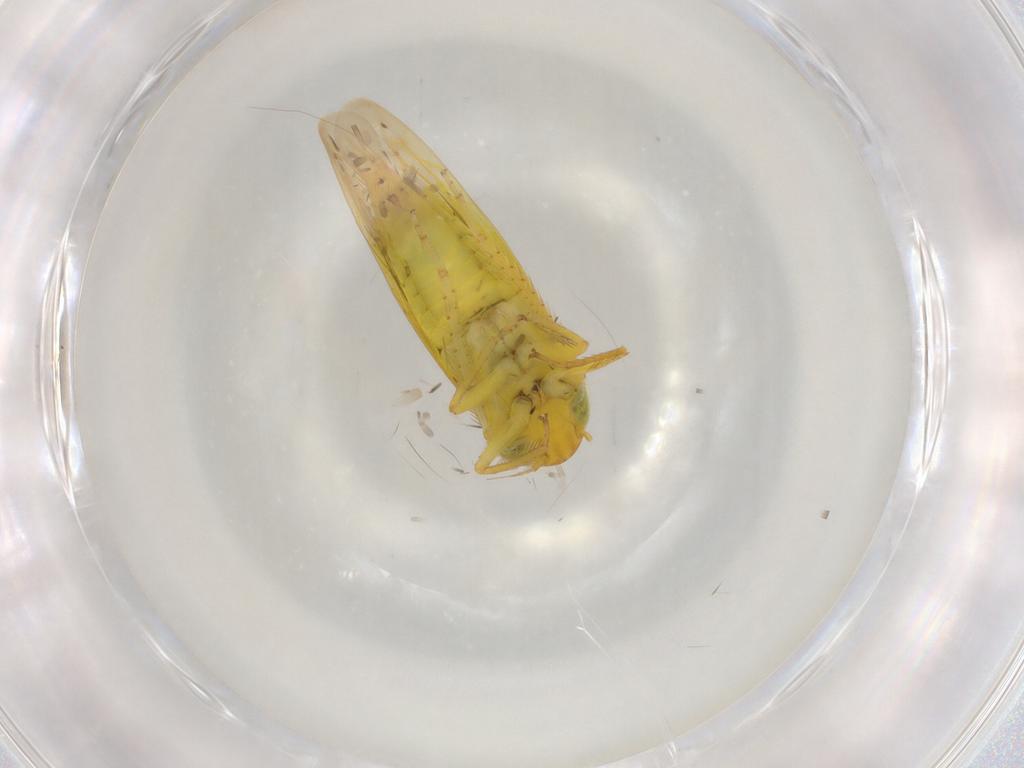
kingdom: Animalia
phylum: Arthropoda
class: Insecta
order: Hemiptera
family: Cicadellidae
